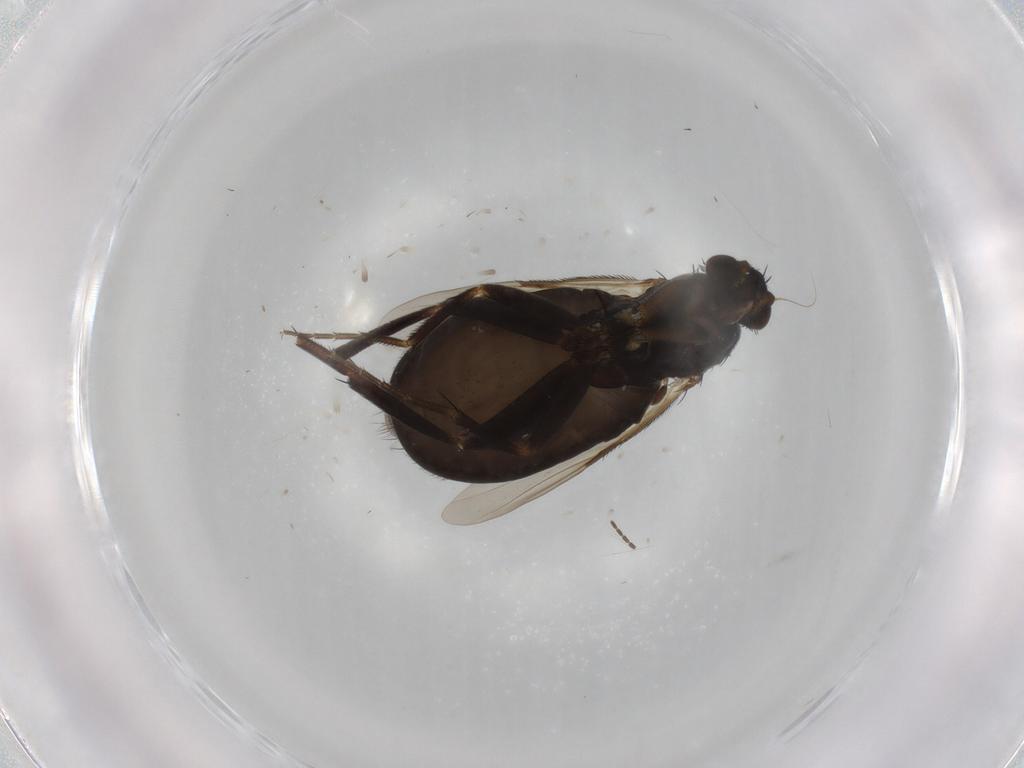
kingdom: Animalia
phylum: Arthropoda
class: Insecta
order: Diptera
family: Phoridae
